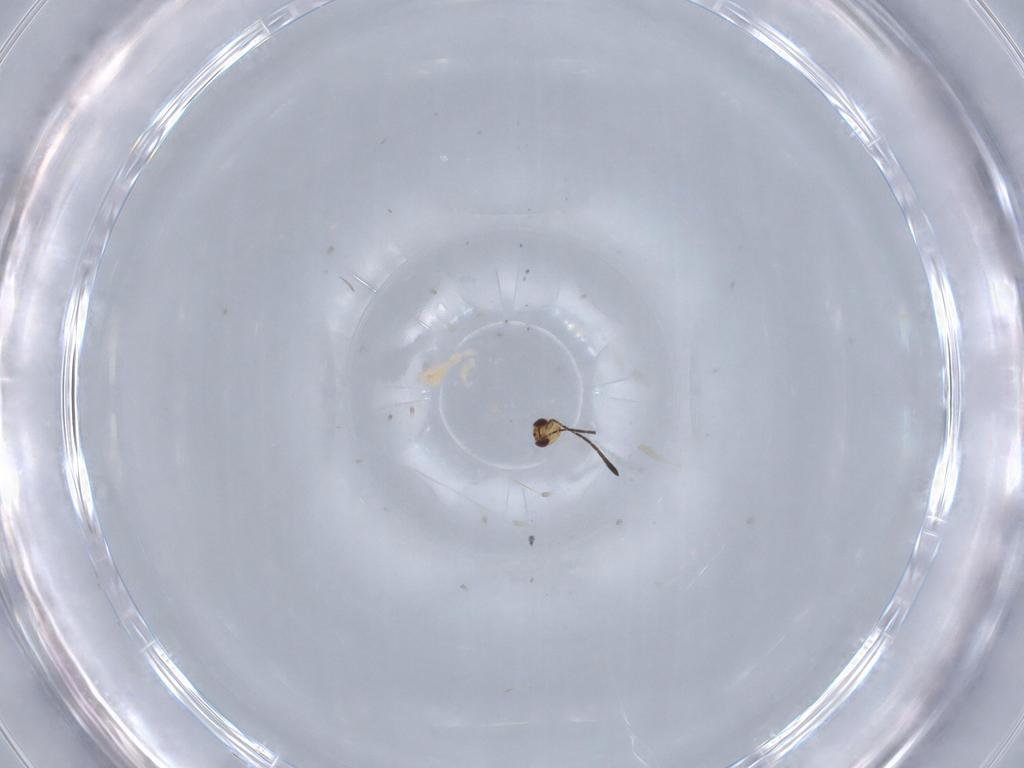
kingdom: Animalia
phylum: Arthropoda
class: Insecta
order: Hymenoptera
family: Mymaridae
